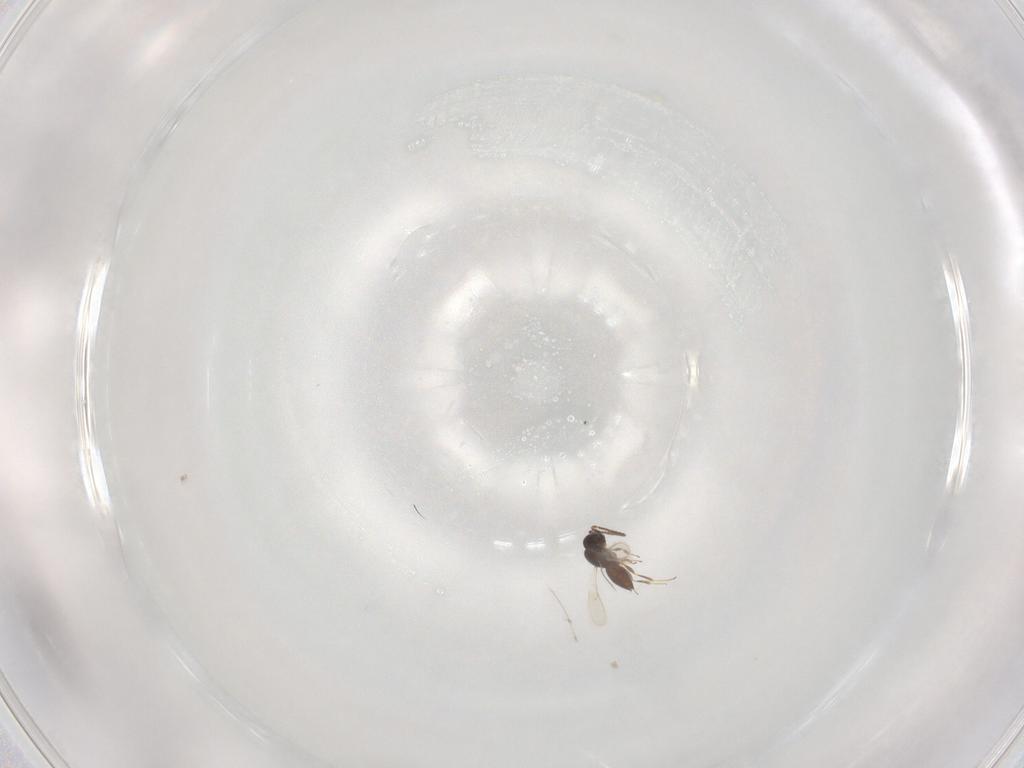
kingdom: Animalia
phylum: Arthropoda
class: Insecta
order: Hymenoptera
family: Scelionidae
